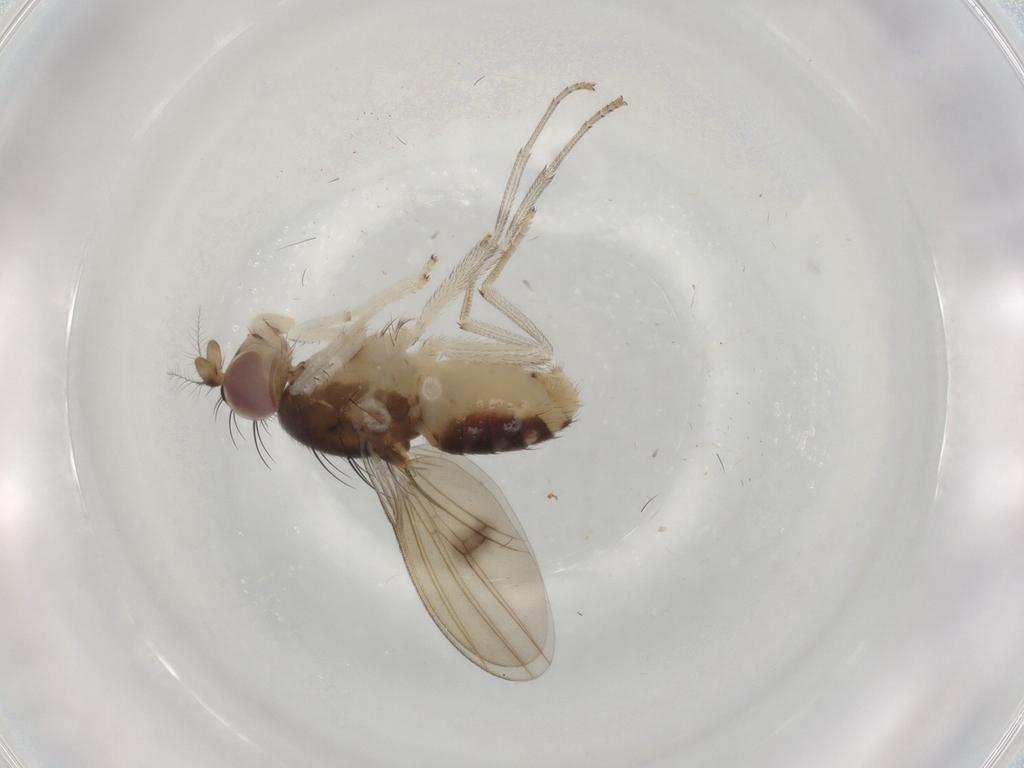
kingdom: Animalia
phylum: Arthropoda
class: Insecta
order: Diptera
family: Lauxaniidae
